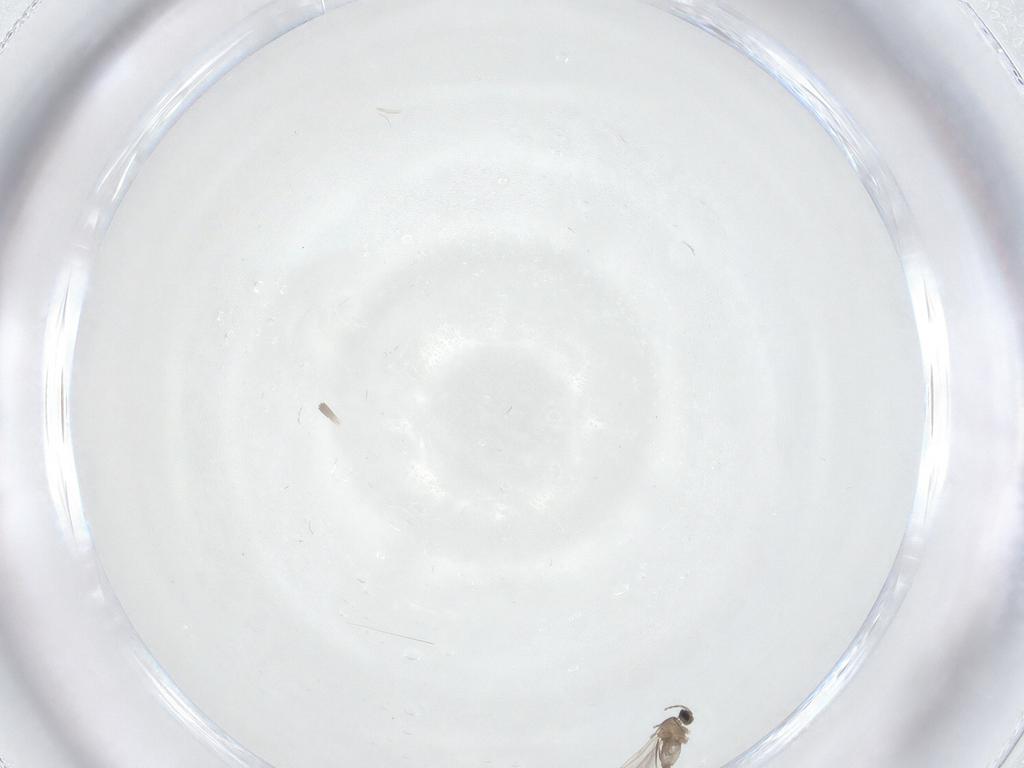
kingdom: Animalia
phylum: Arthropoda
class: Insecta
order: Diptera
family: Cecidomyiidae
